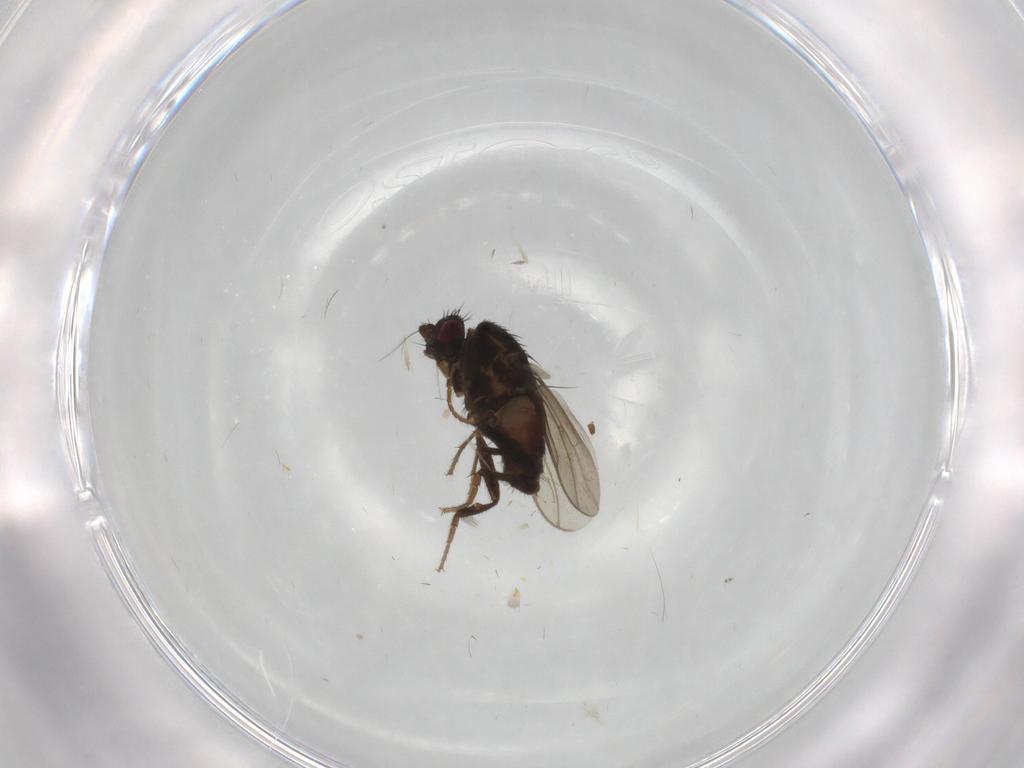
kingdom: Animalia
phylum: Arthropoda
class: Insecta
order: Diptera
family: Sphaeroceridae
